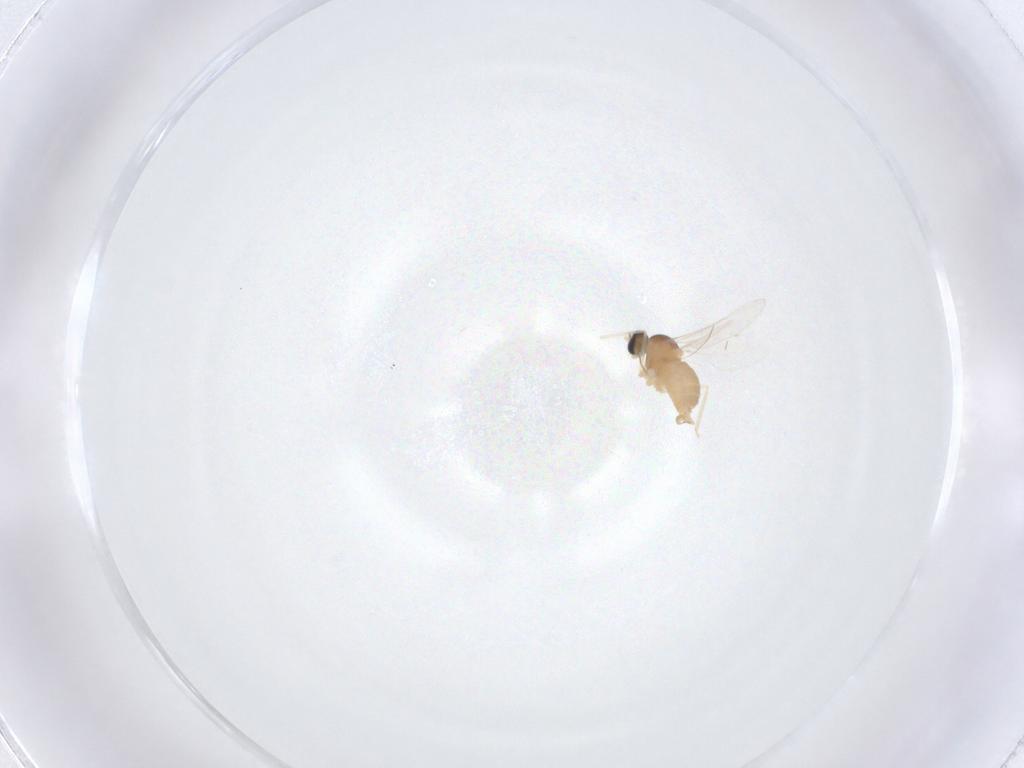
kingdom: Animalia
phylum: Arthropoda
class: Insecta
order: Diptera
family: Cecidomyiidae
